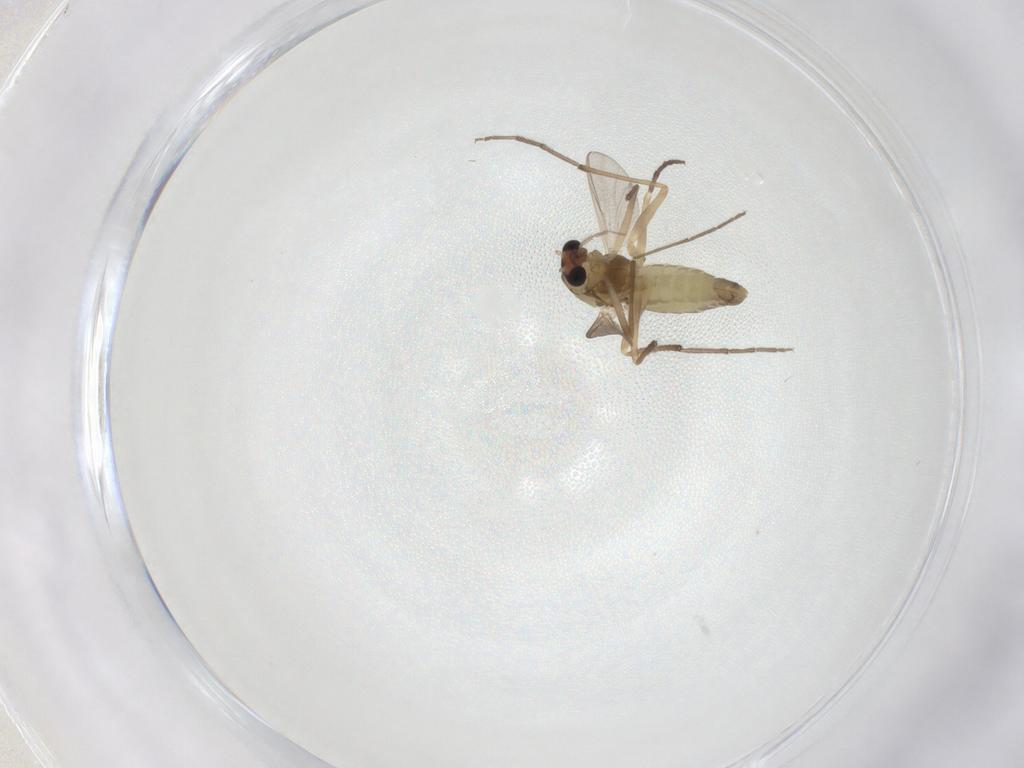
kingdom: Animalia
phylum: Arthropoda
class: Insecta
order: Diptera
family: Chironomidae
